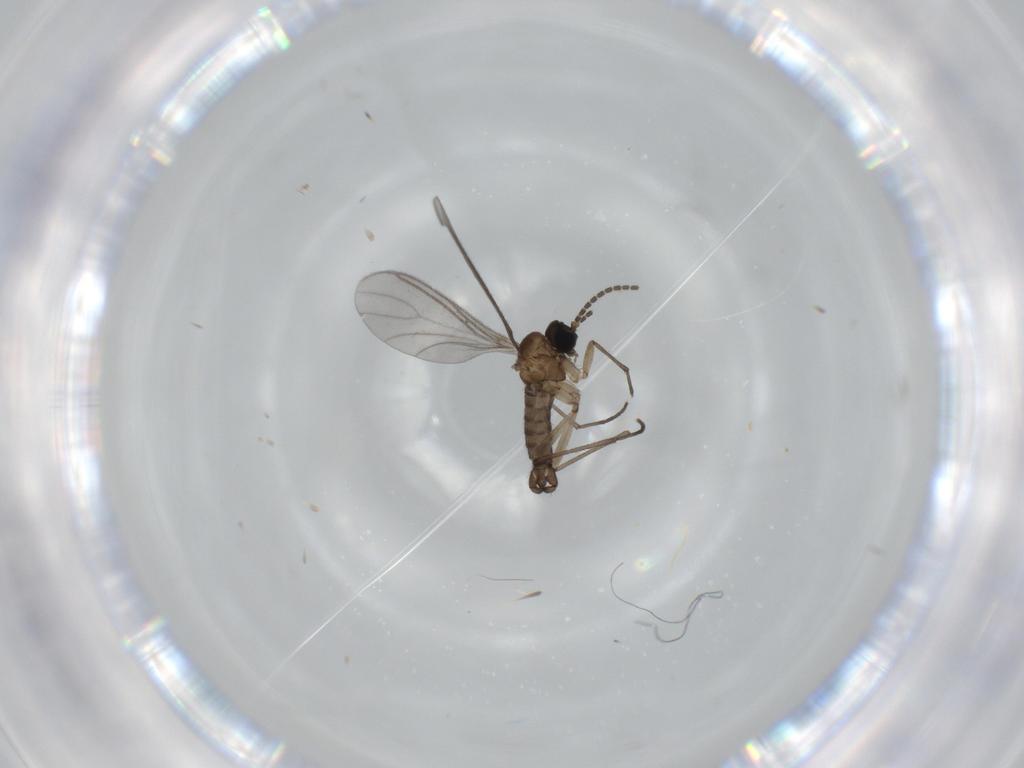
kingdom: Animalia
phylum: Arthropoda
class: Insecta
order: Diptera
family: Sciaridae
